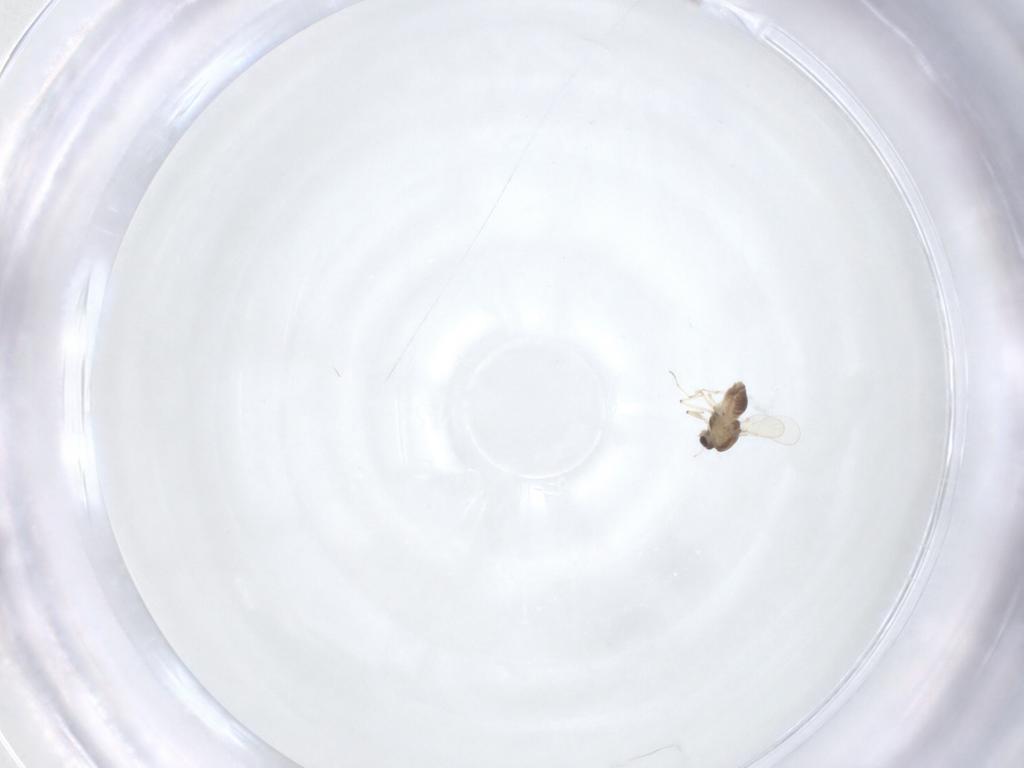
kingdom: Animalia
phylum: Arthropoda
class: Insecta
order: Diptera
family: Chironomidae
